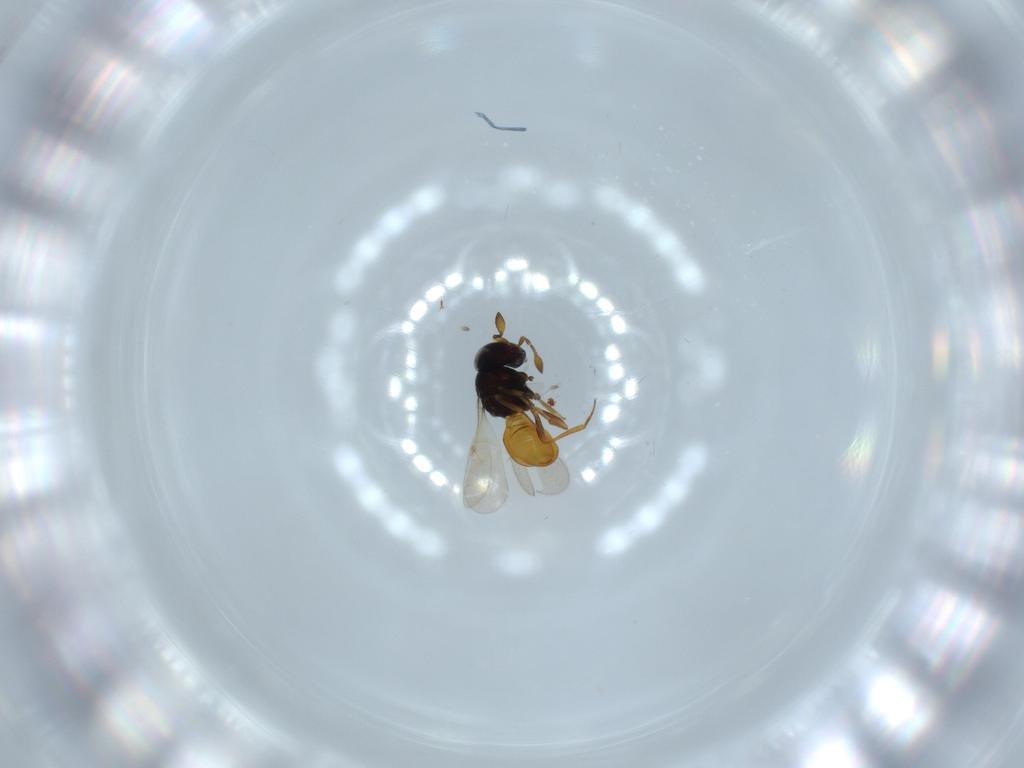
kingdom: Animalia
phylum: Arthropoda
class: Insecta
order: Hymenoptera
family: Scelionidae
